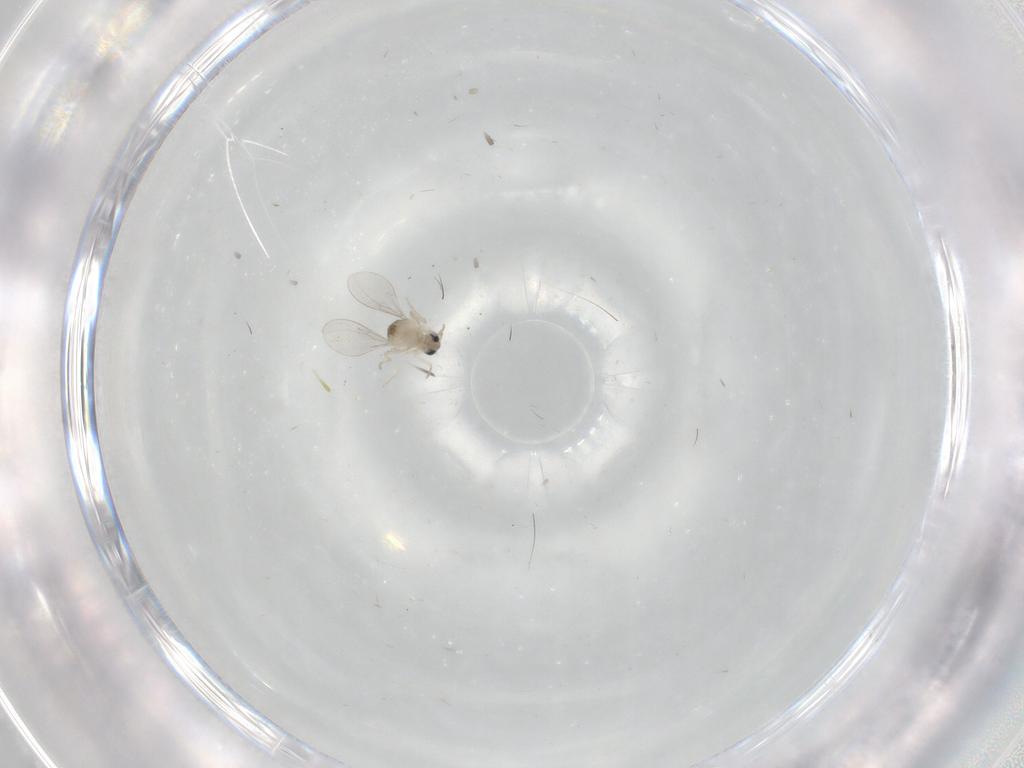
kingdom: Animalia
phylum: Arthropoda
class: Insecta
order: Diptera
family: Cecidomyiidae
